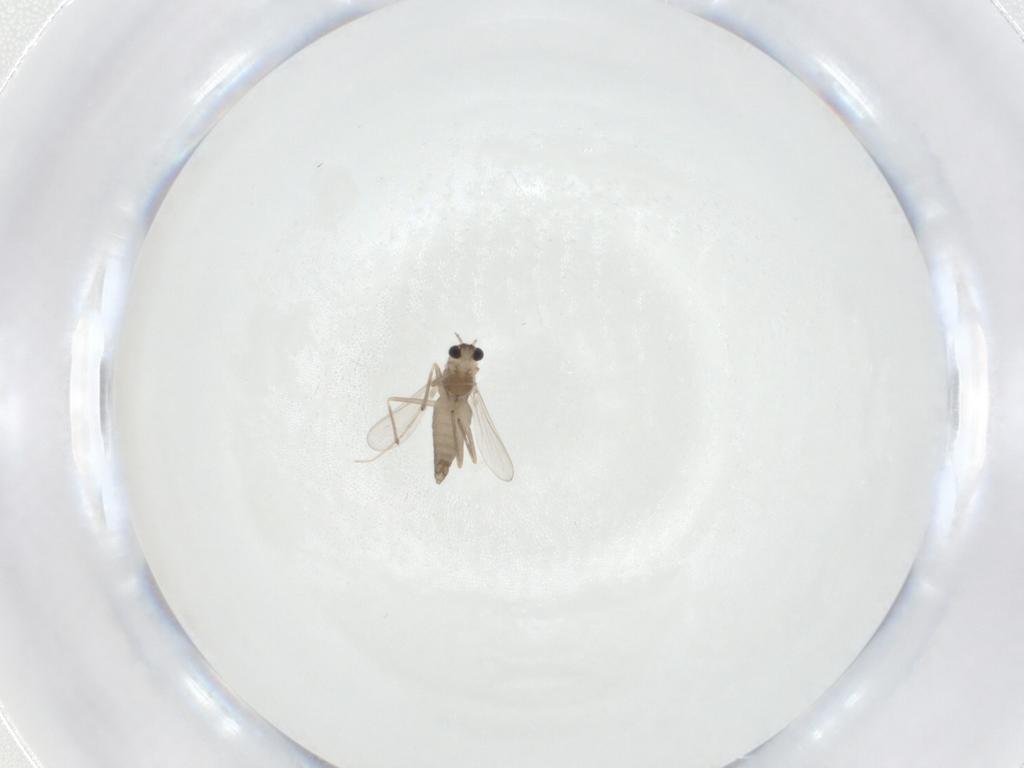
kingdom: Animalia
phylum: Arthropoda
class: Insecta
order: Diptera
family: Chironomidae
